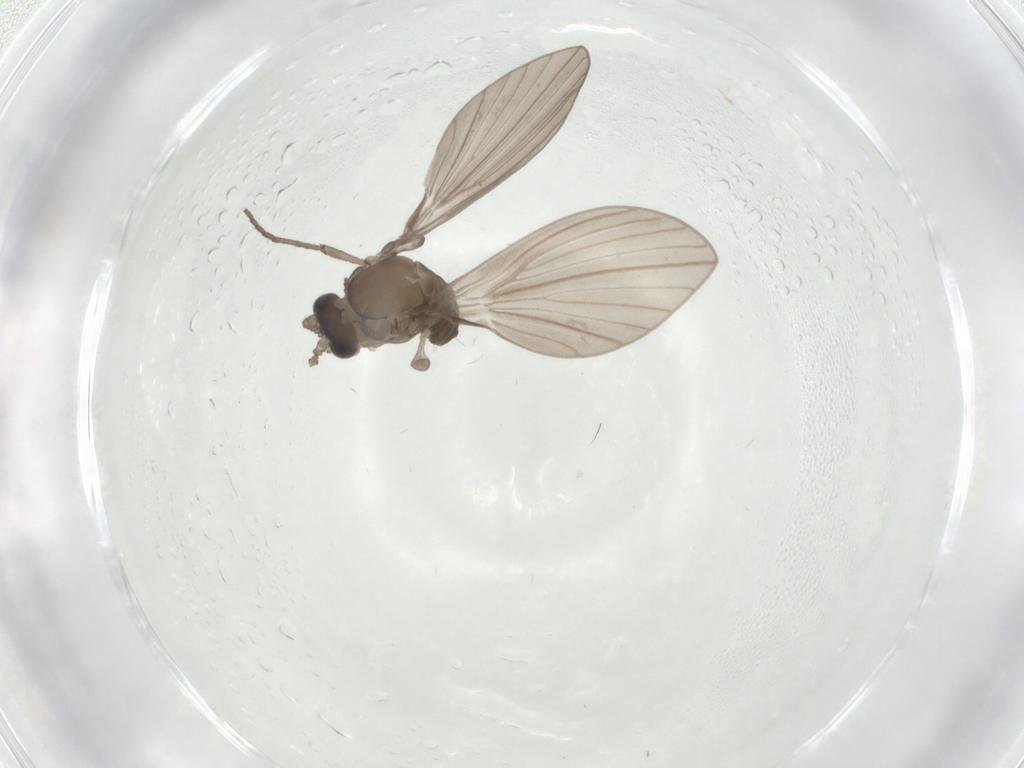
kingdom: Animalia
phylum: Arthropoda
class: Insecta
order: Diptera
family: Psychodidae
